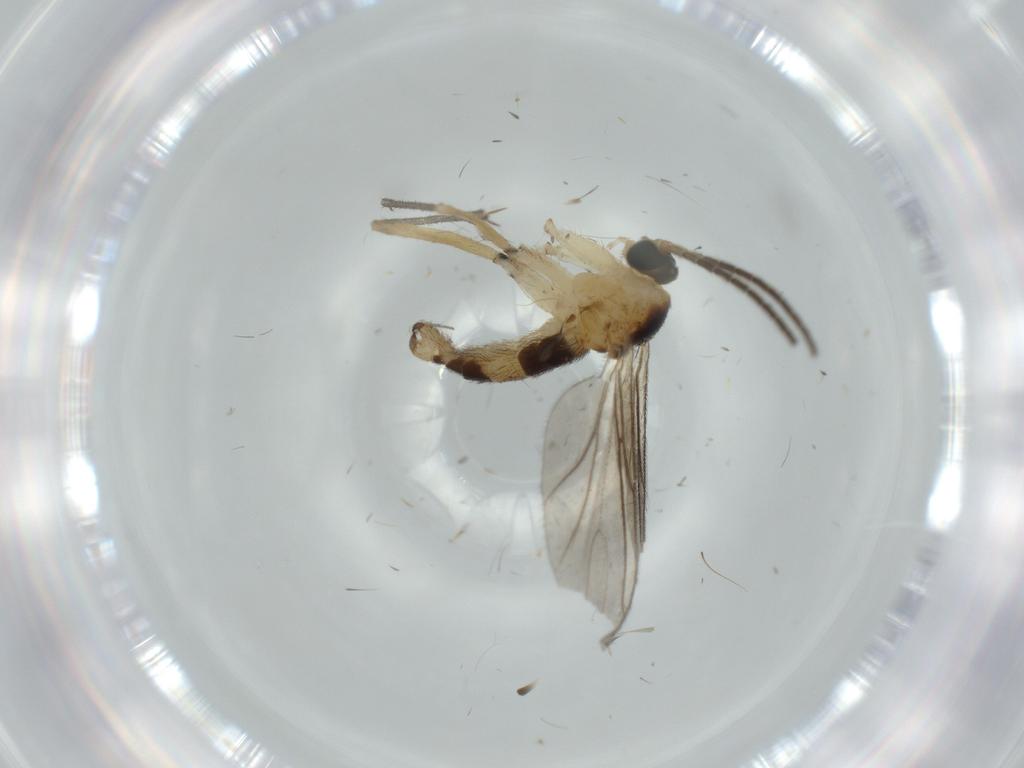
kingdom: Animalia
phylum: Arthropoda
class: Insecta
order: Diptera
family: Sciaridae
